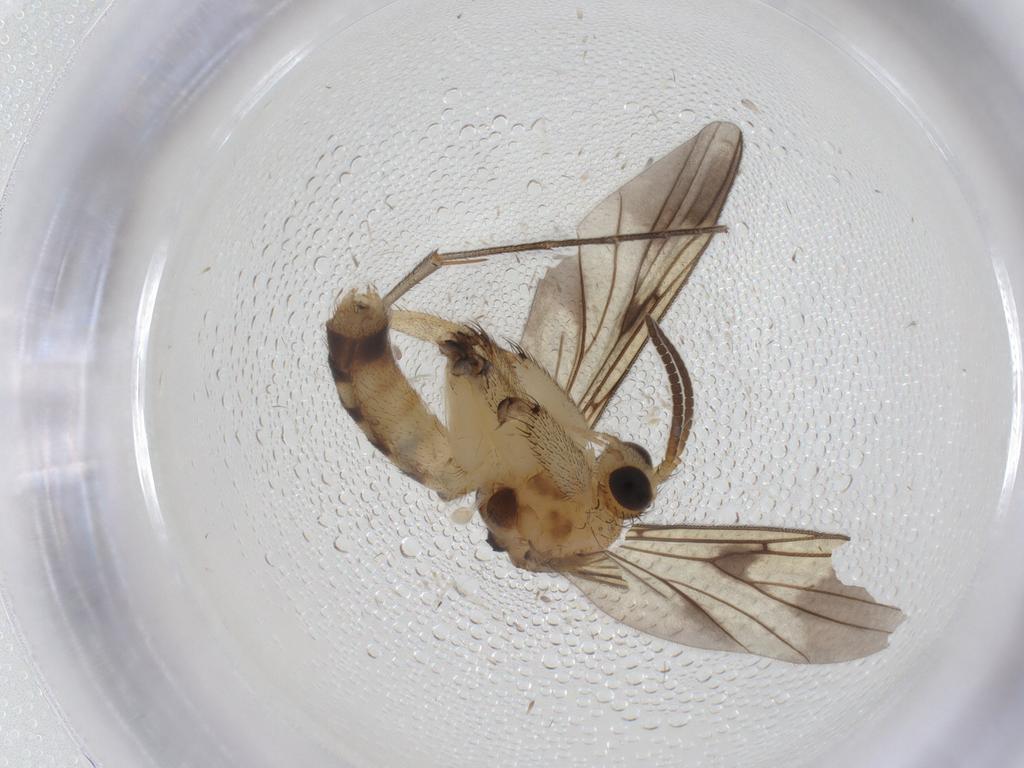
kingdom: Animalia
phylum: Arthropoda
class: Insecta
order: Diptera
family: Mycetophilidae
